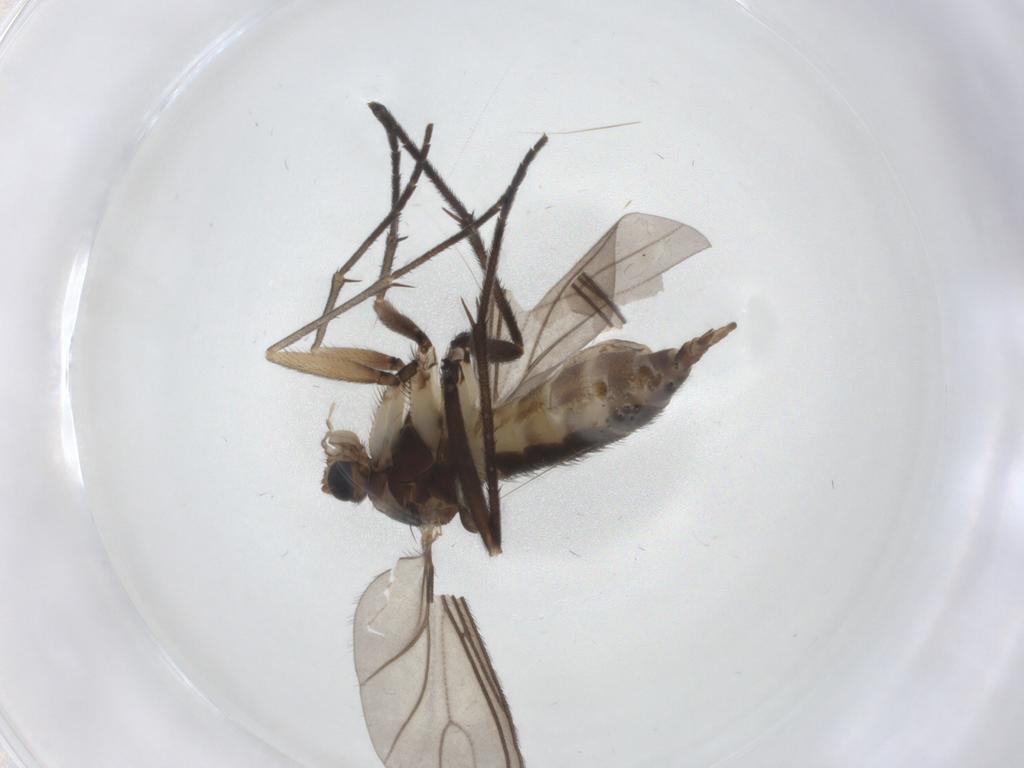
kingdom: Animalia
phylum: Arthropoda
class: Insecta
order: Diptera
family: Sciaridae
